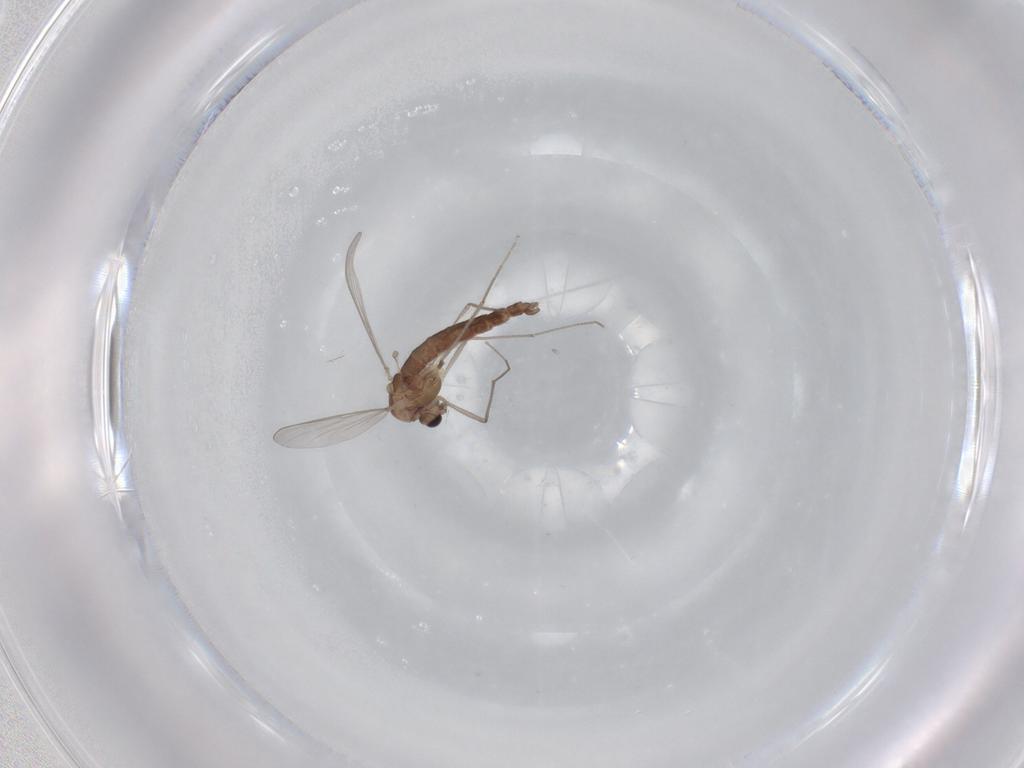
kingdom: Animalia
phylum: Arthropoda
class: Insecta
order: Diptera
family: Chironomidae
